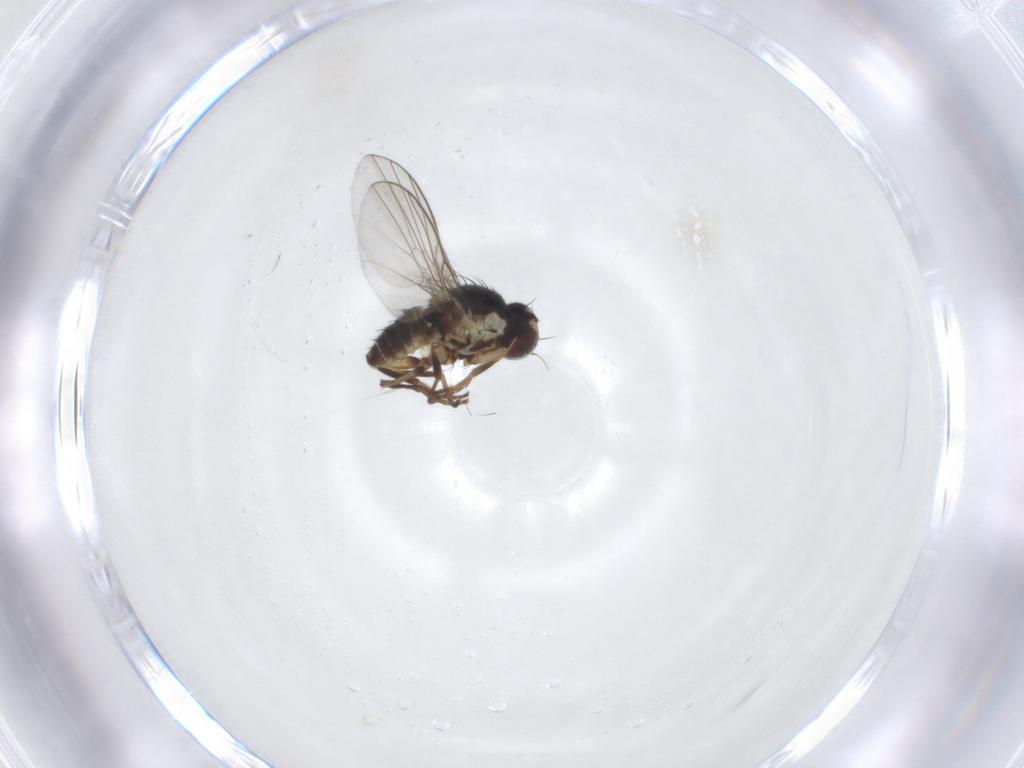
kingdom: Animalia
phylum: Arthropoda
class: Insecta
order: Diptera
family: Agromyzidae
